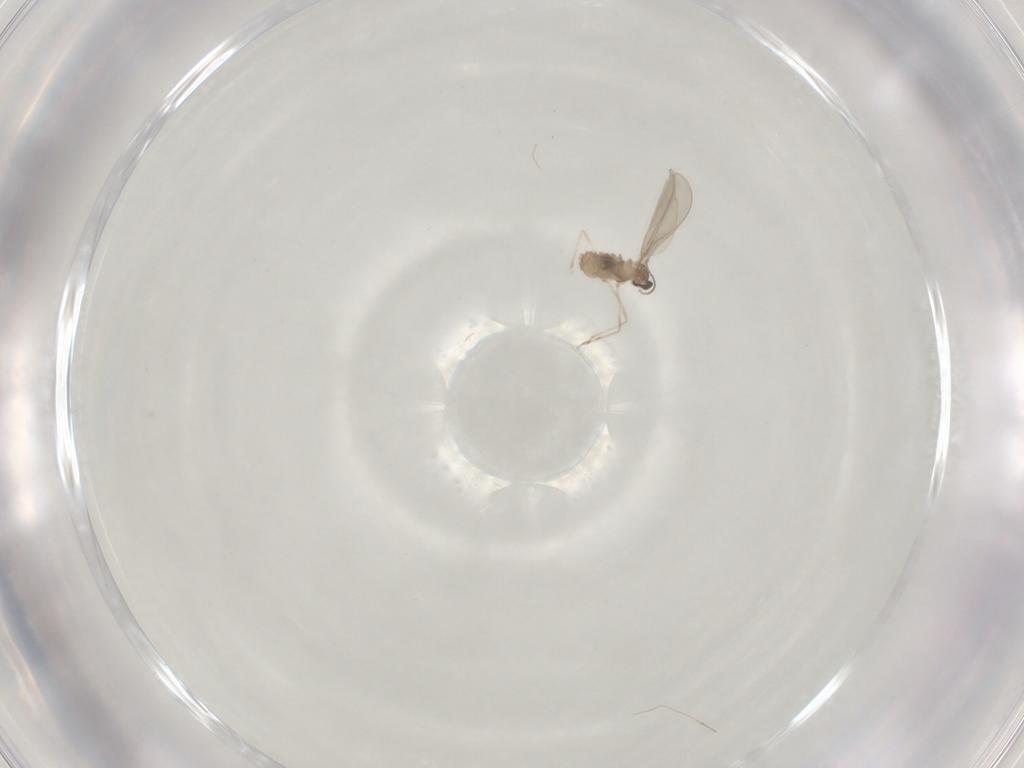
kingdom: Animalia
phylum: Arthropoda
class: Insecta
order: Diptera
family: Cecidomyiidae
